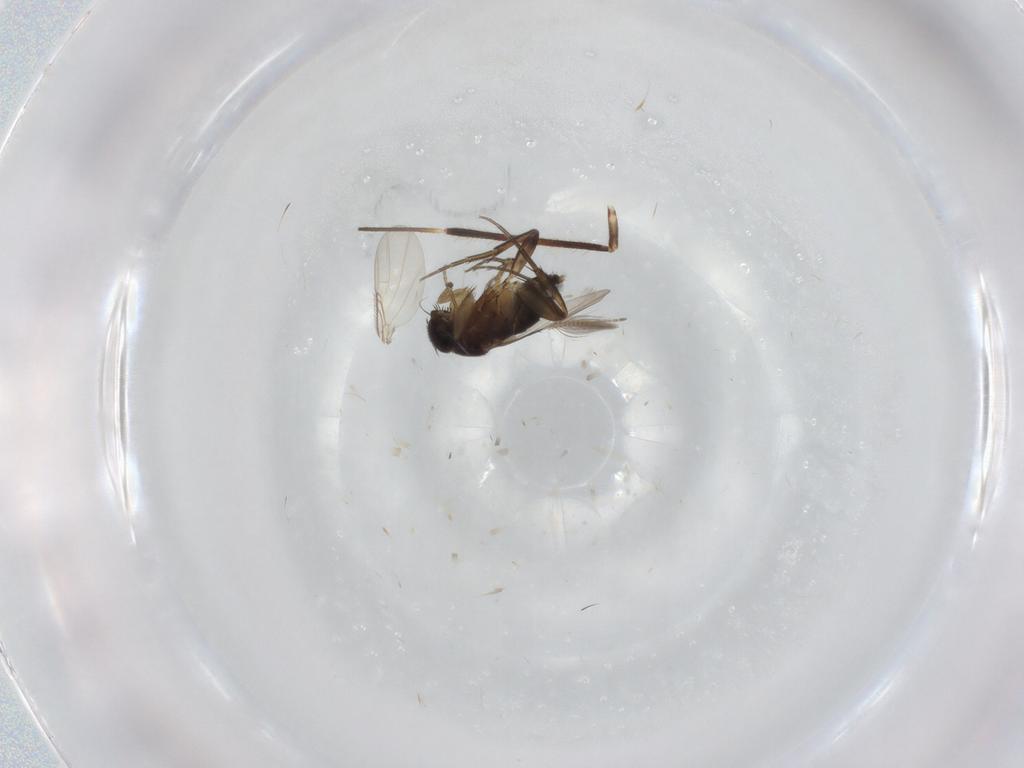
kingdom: Animalia
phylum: Arthropoda
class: Insecta
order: Diptera
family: Phoridae
